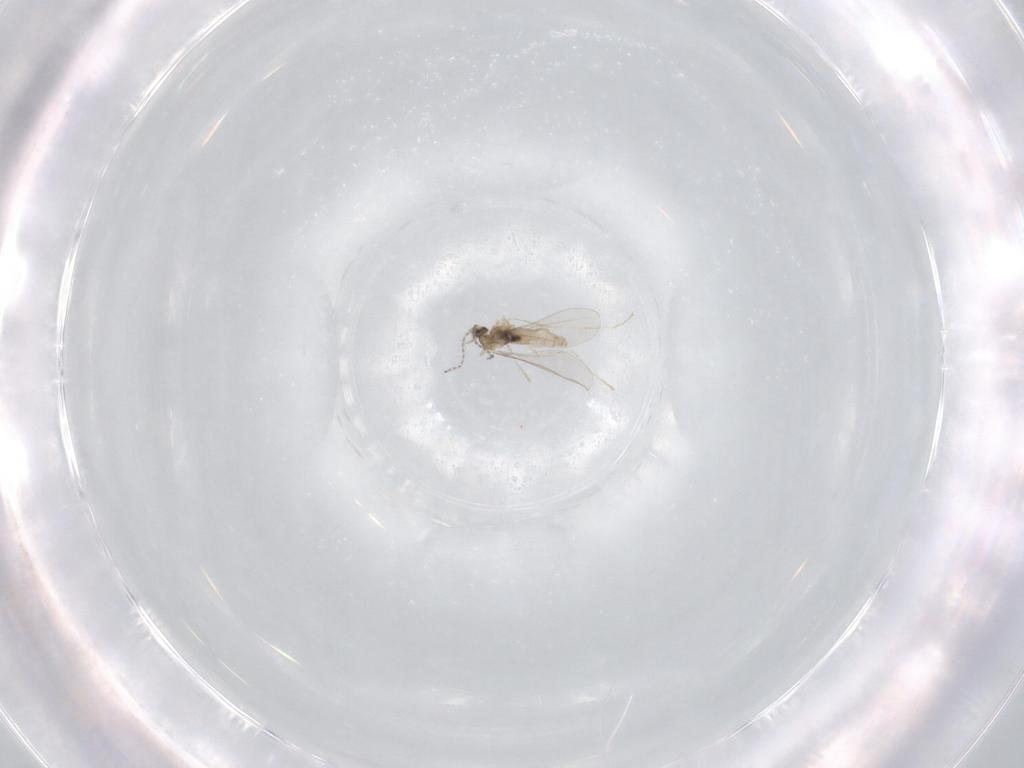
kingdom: Animalia
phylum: Arthropoda
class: Insecta
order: Diptera
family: Cecidomyiidae
